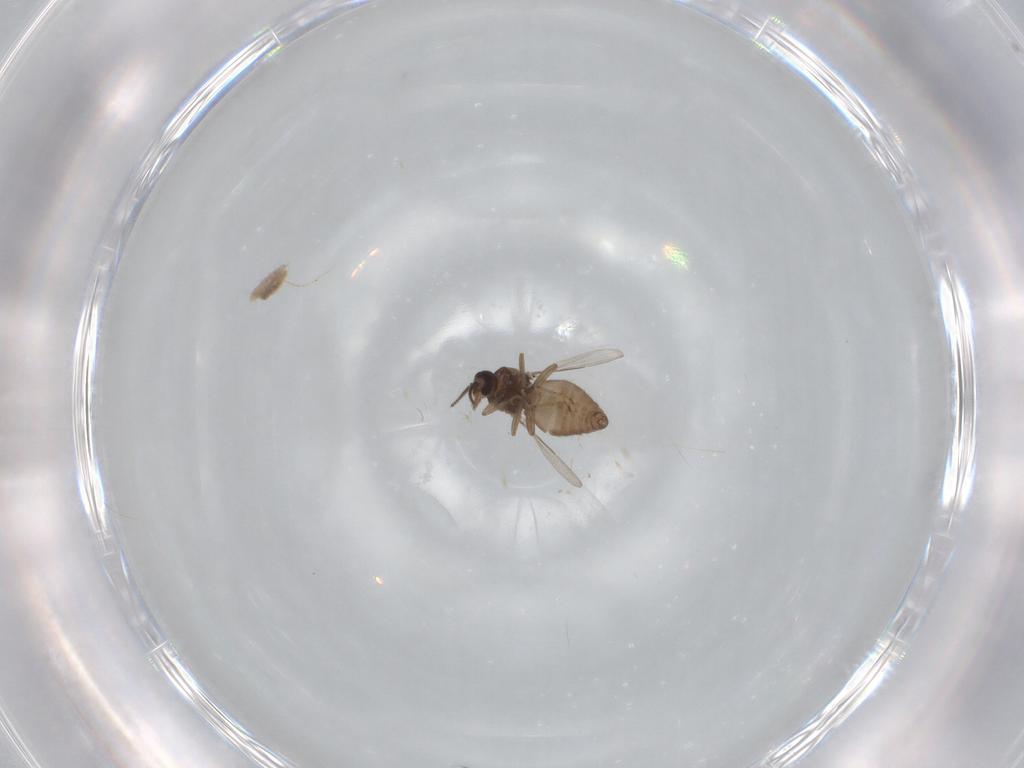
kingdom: Animalia
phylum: Arthropoda
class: Insecta
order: Diptera
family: Ceratopogonidae
